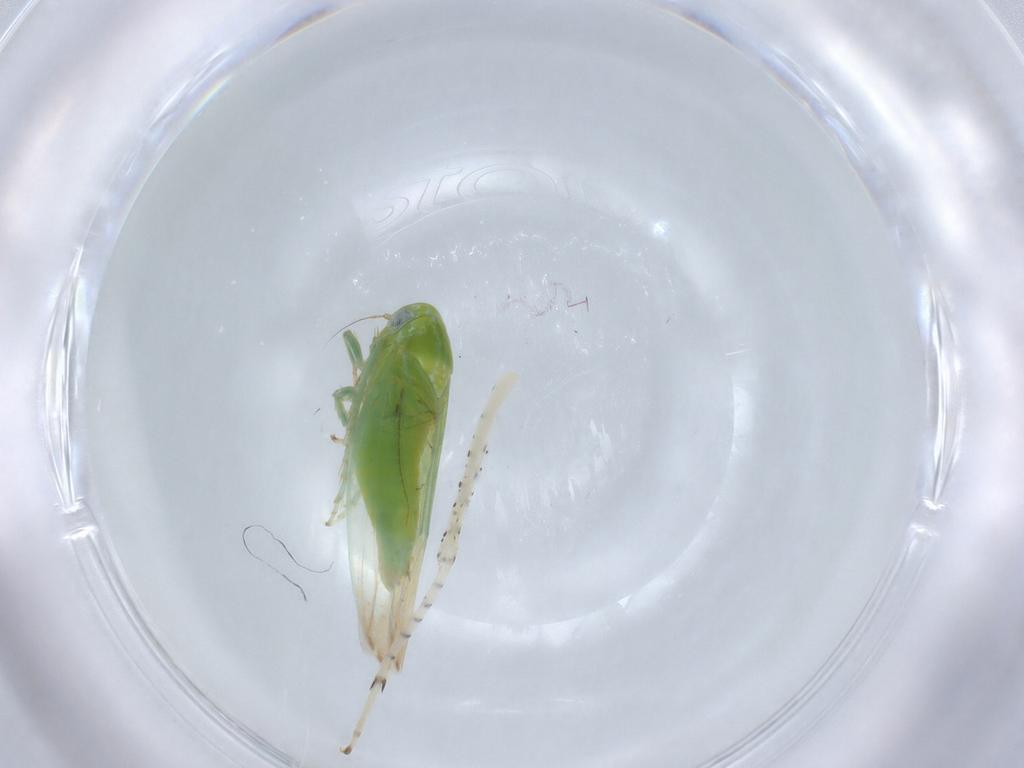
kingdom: Animalia
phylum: Arthropoda
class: Insecta
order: Hemiptera
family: Cicadellidae
